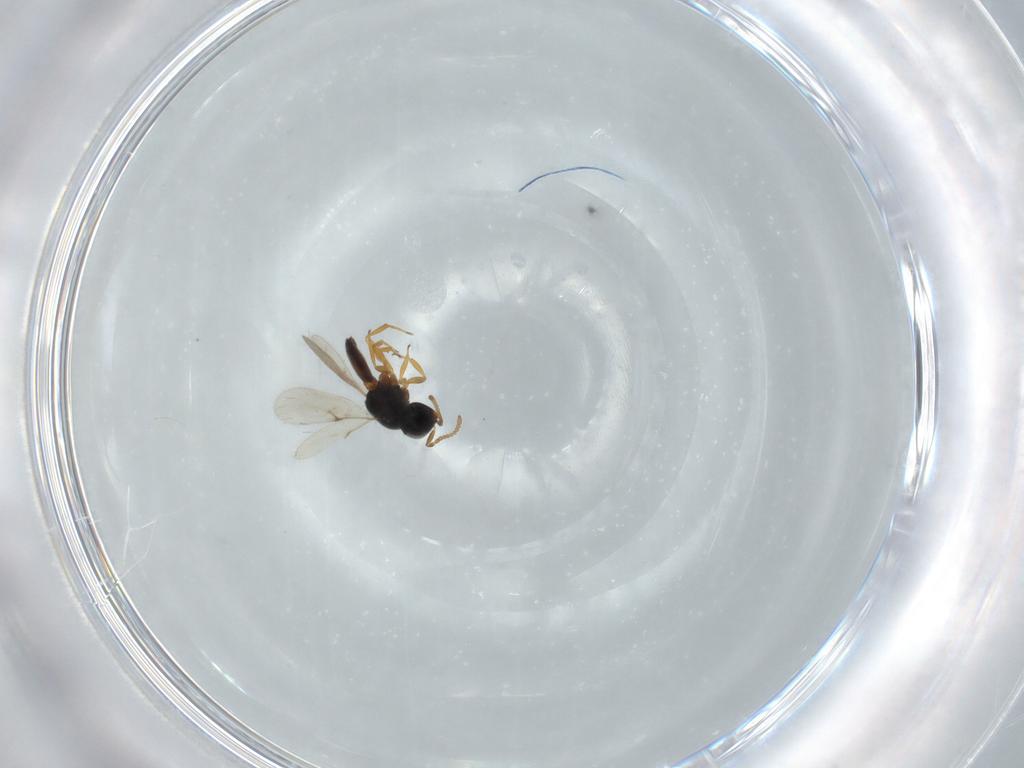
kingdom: Animalia
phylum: Arthropoda
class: Insecta
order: Hymenoptera
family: Scelionidae
